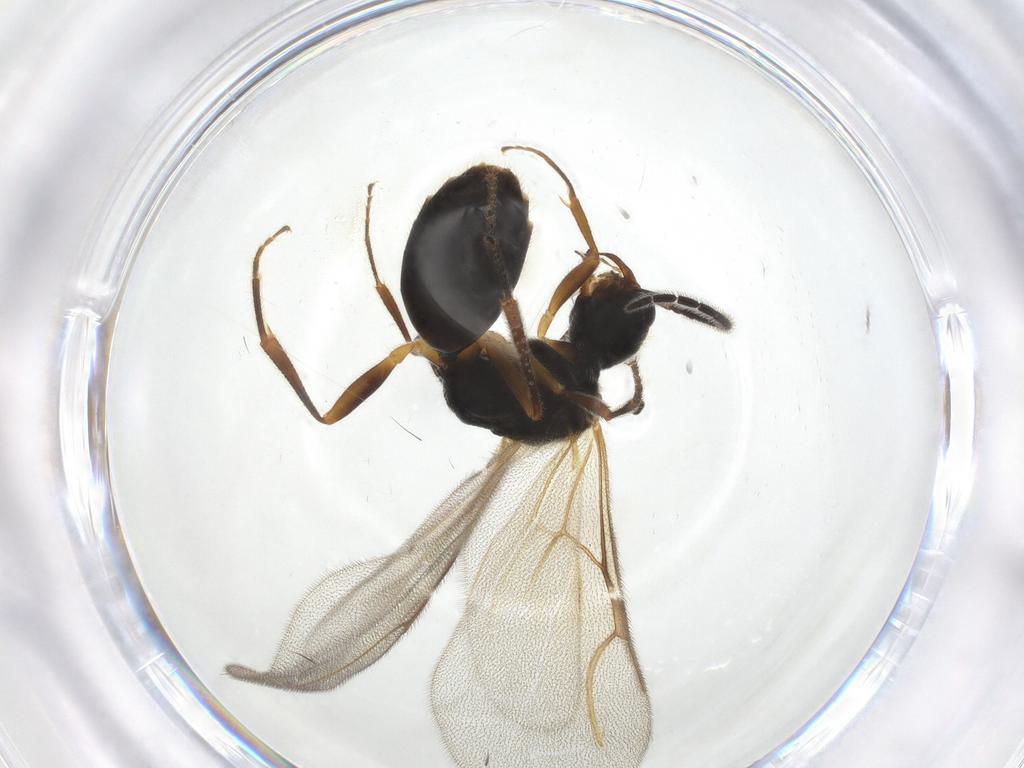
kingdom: Animalia
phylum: Arthropoda
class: Insecta
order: Hymenoptera
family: Bethylidae
